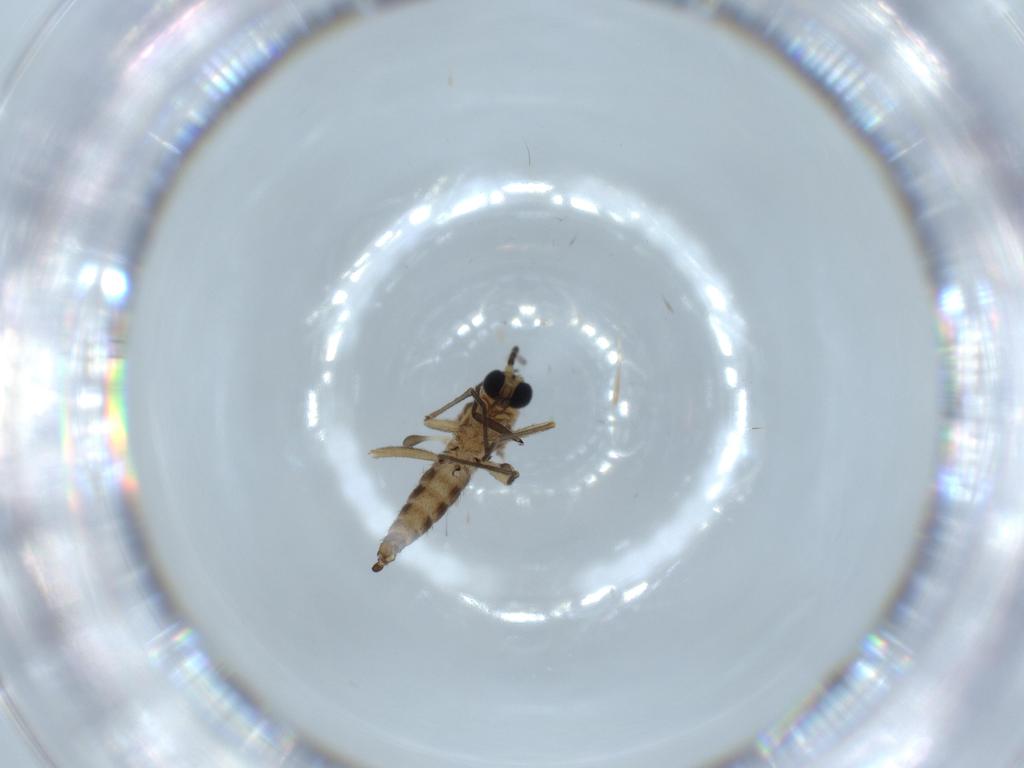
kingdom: Animalia
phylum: Arthropoda
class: Insecta
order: Diptera
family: Sciaridae
